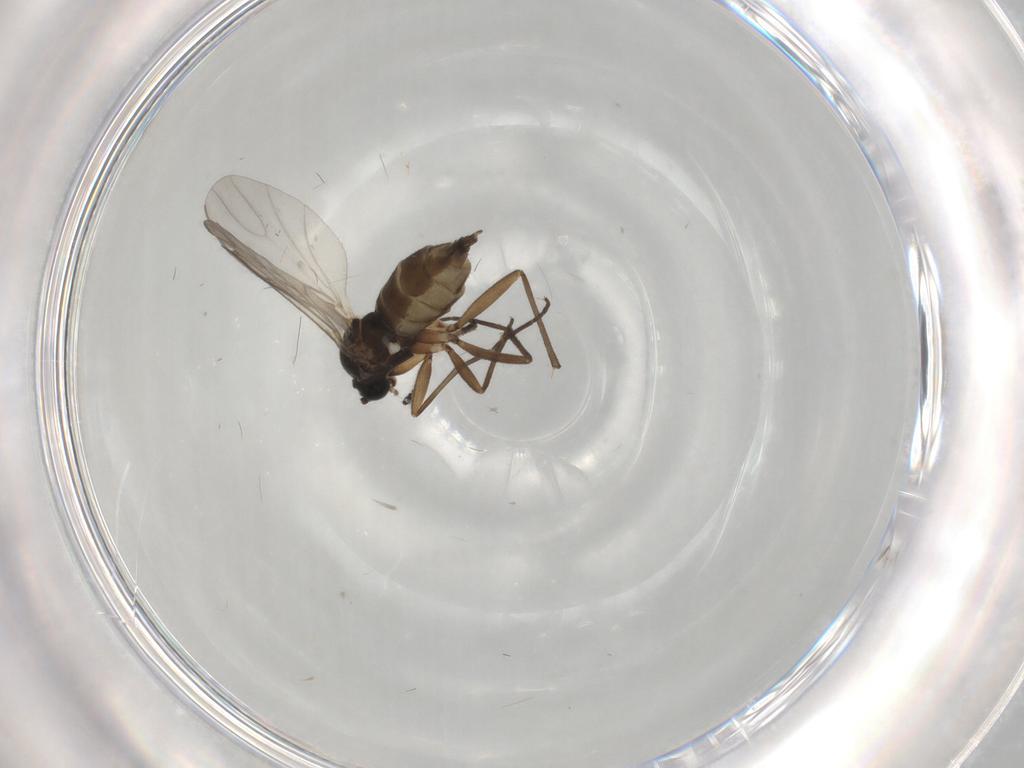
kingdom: Animalia
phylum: Arthropoda
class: Insecta
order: Diptera
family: Sciaridae
